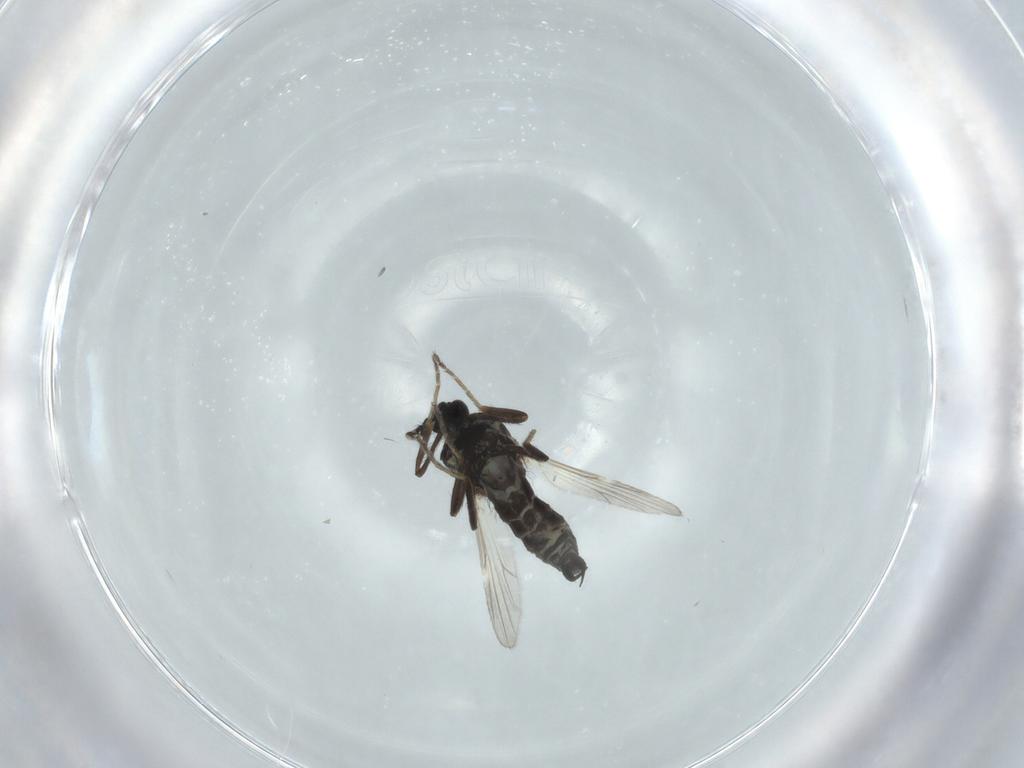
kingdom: Animalia
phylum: Arthropoda
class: Insecta
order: Diptera
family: Cecidomyiidae
